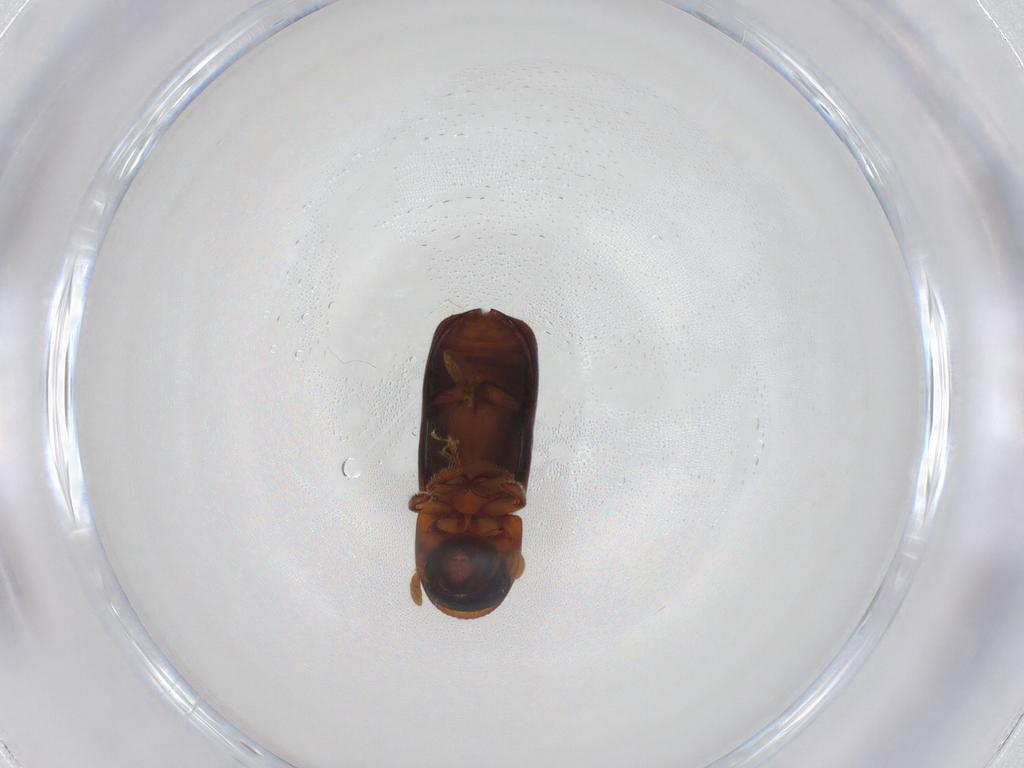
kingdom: Animalia
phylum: Arthropoda
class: Insecta
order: Coleoptera
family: Curculionidae
